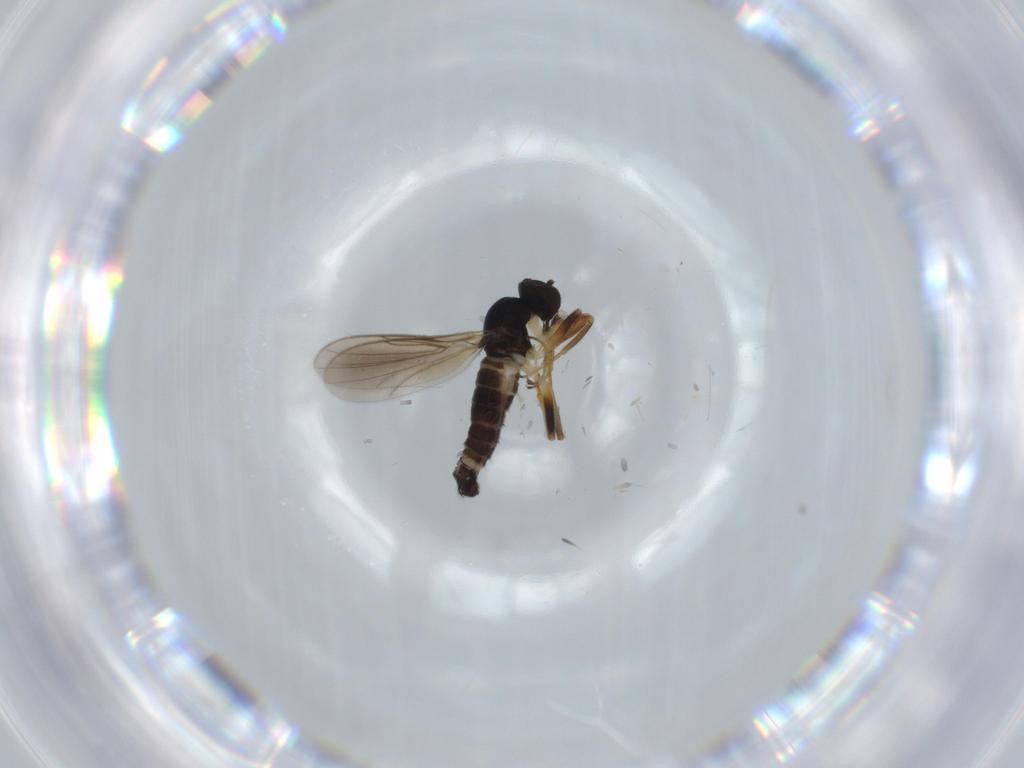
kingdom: Animalia
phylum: Arthropoda
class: Insecta
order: Diptera
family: Hybotidae
